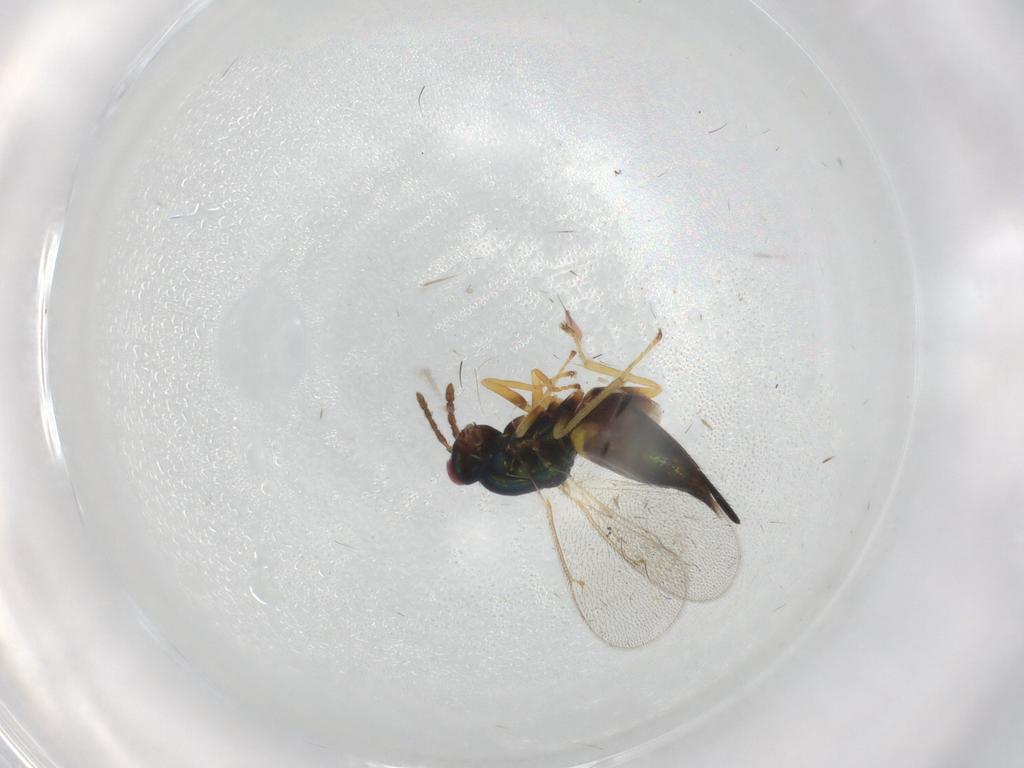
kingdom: Animalia
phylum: Arthropoda
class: Insecta
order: Hymenoptera
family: Eulophidae
